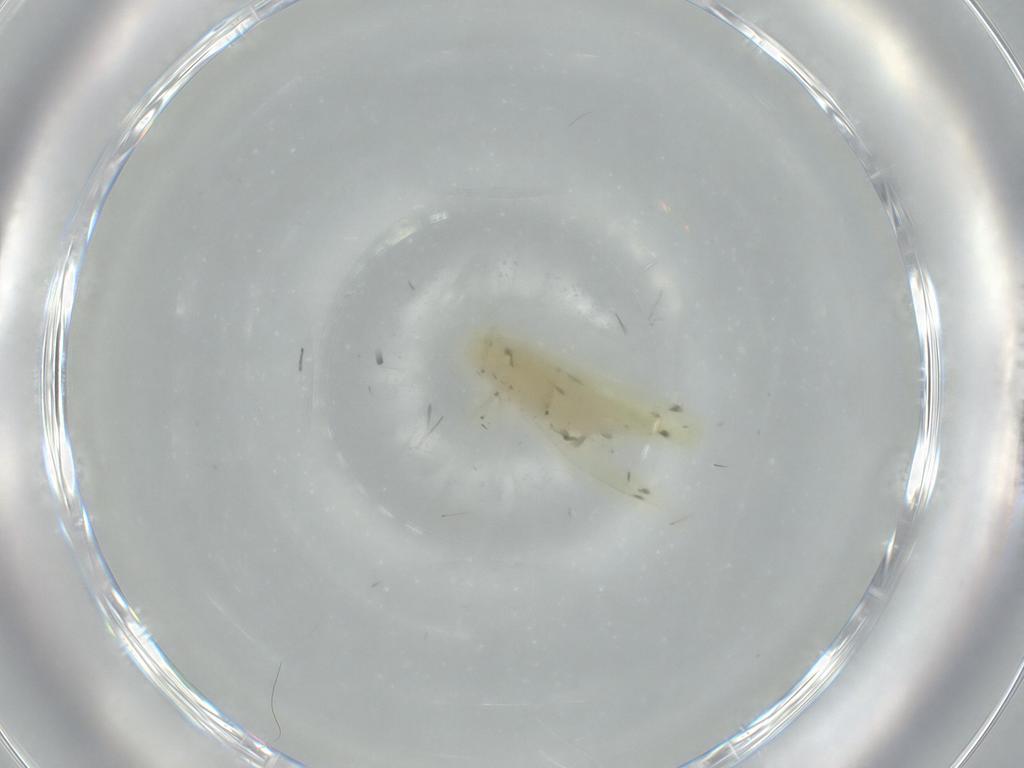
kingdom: Animalia
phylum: Arthropoda
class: Insecta
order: Hemiptera
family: Cicadellidae
